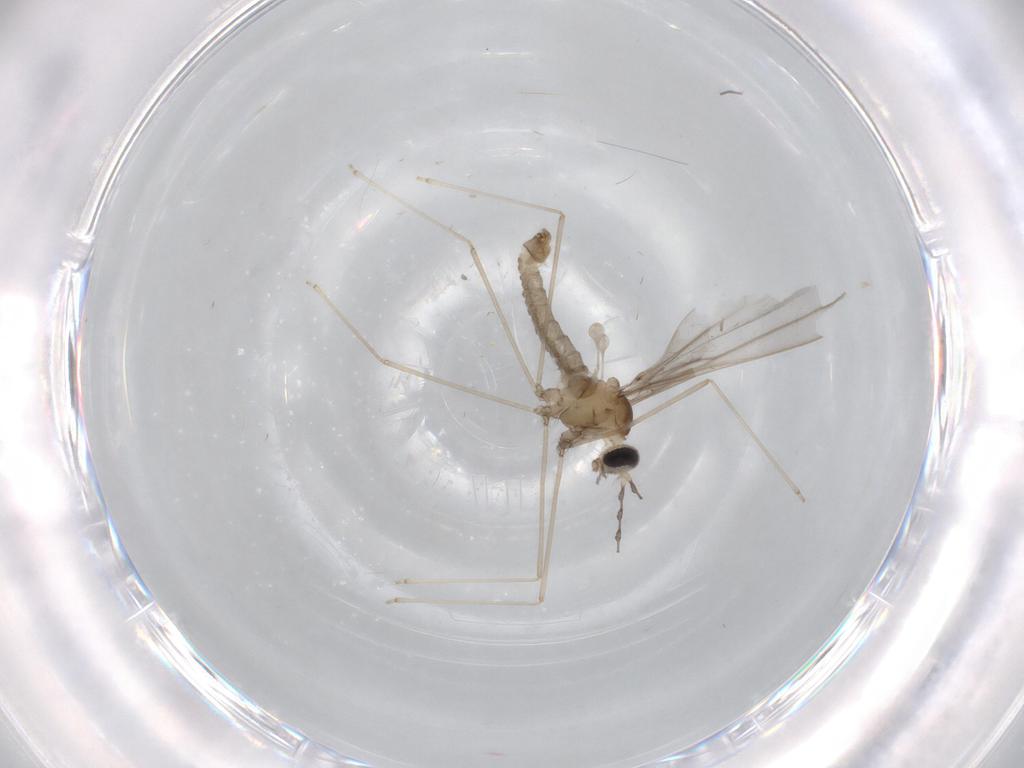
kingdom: Animalia
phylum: Arthropoda
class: Insecta
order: Diptera
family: Cecidomyiidae
